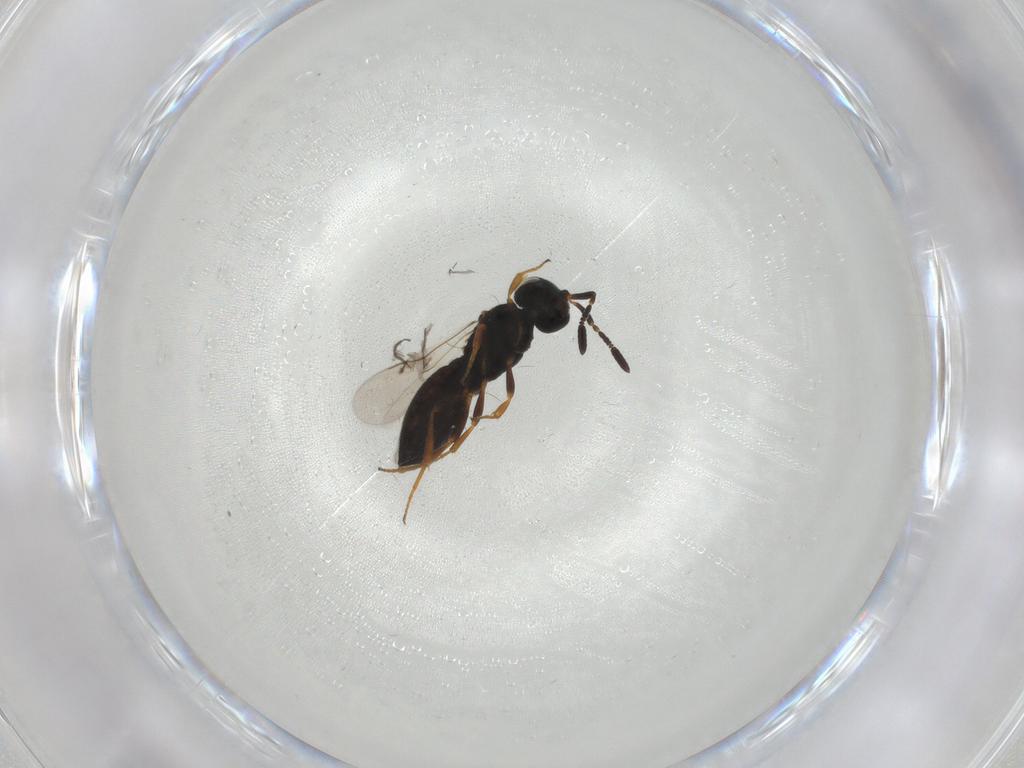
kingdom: Animalia
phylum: Arthropoda
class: Insecta
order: Hymenoptera
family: Scelionidae
